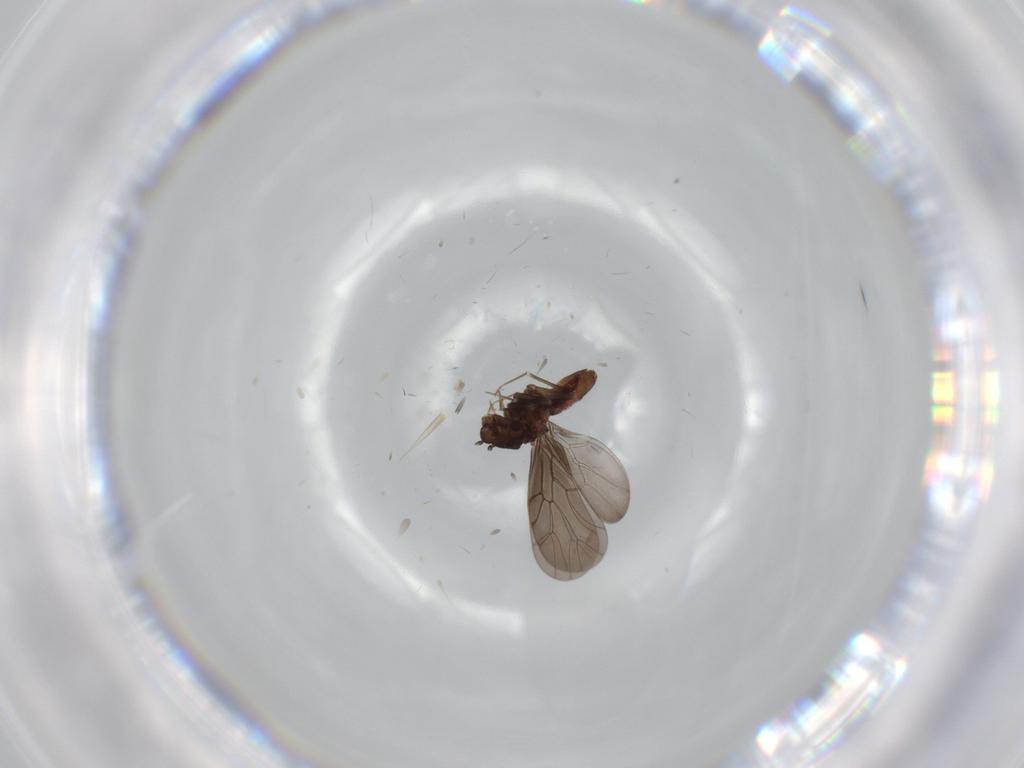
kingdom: Animalia
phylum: Arthropoda
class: Insecta
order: Psocodea
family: Lepidopsocidae
